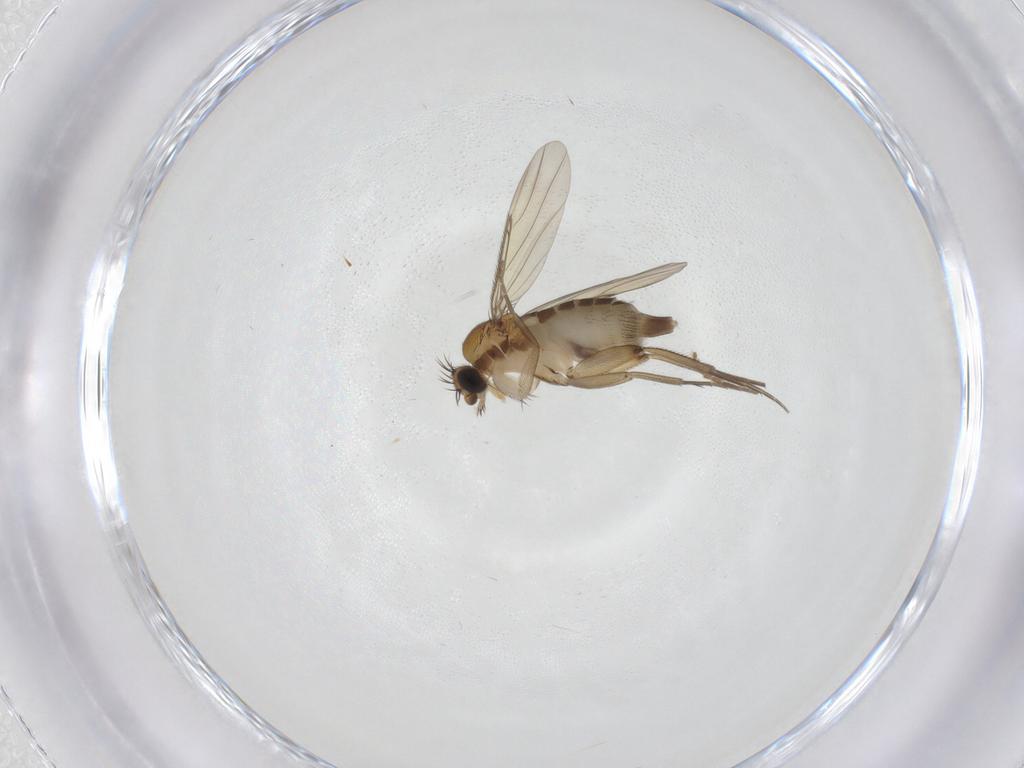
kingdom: Animalia
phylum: Arthropoda
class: Insecta
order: Diptera
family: Phoridae
